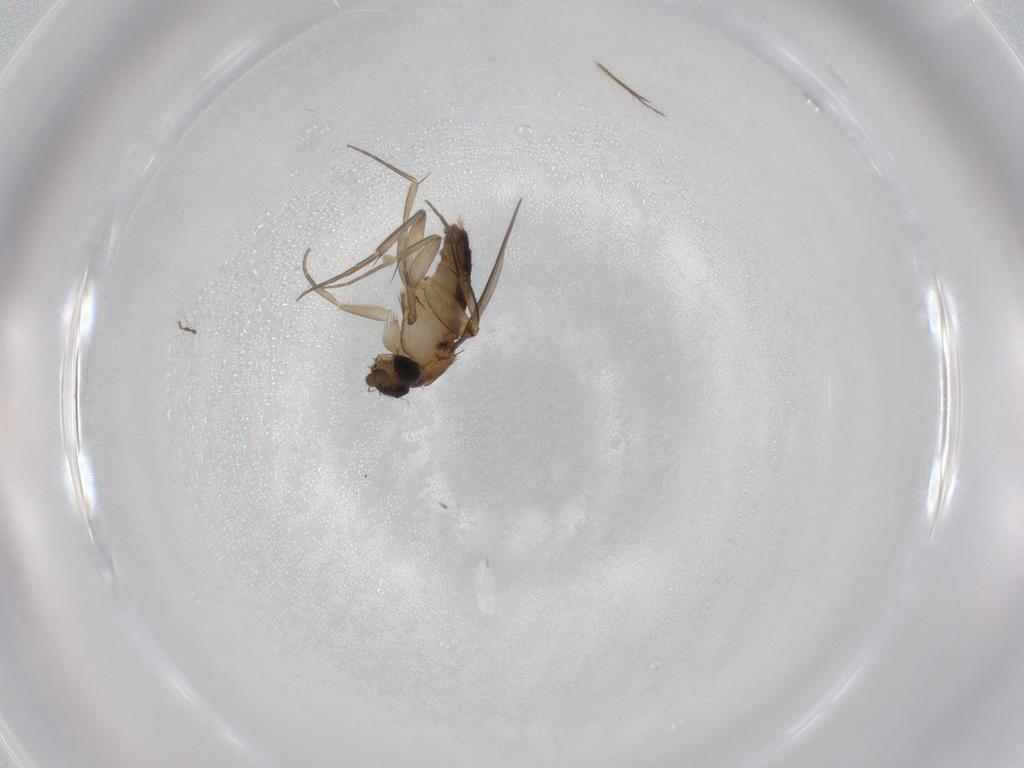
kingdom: Animalia
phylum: Arthropoda
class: Insecta
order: Diptera
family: Phoridae
